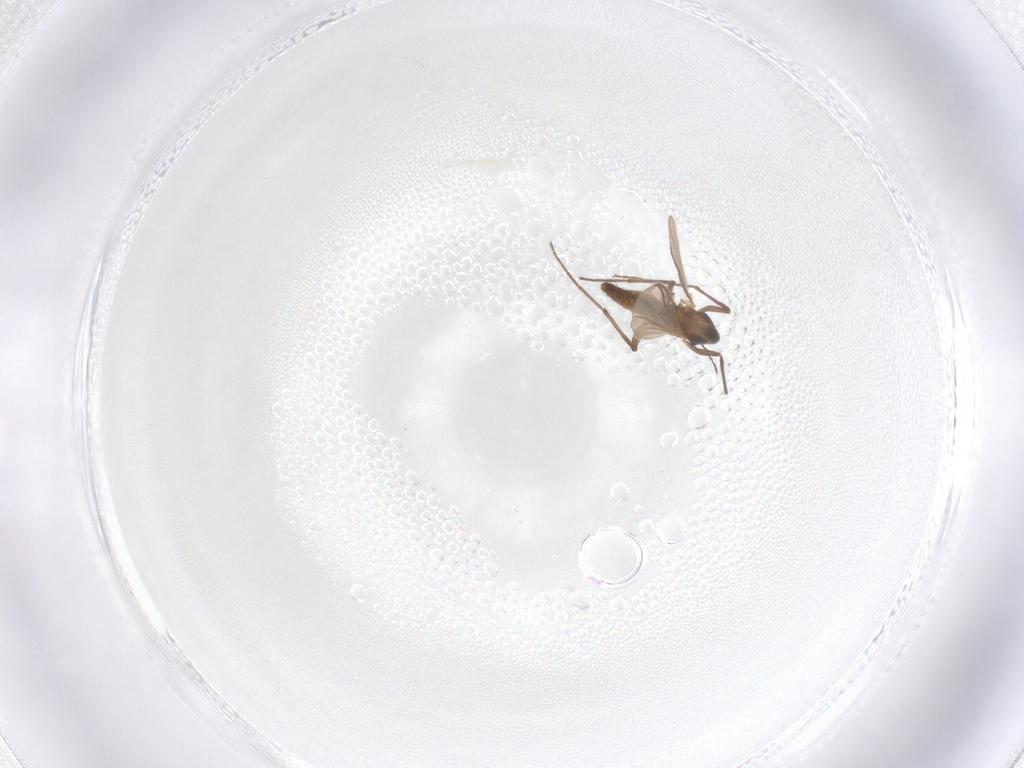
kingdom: Animalia
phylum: Arthropoda
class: Insecta
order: Diptera
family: Chironomidae
